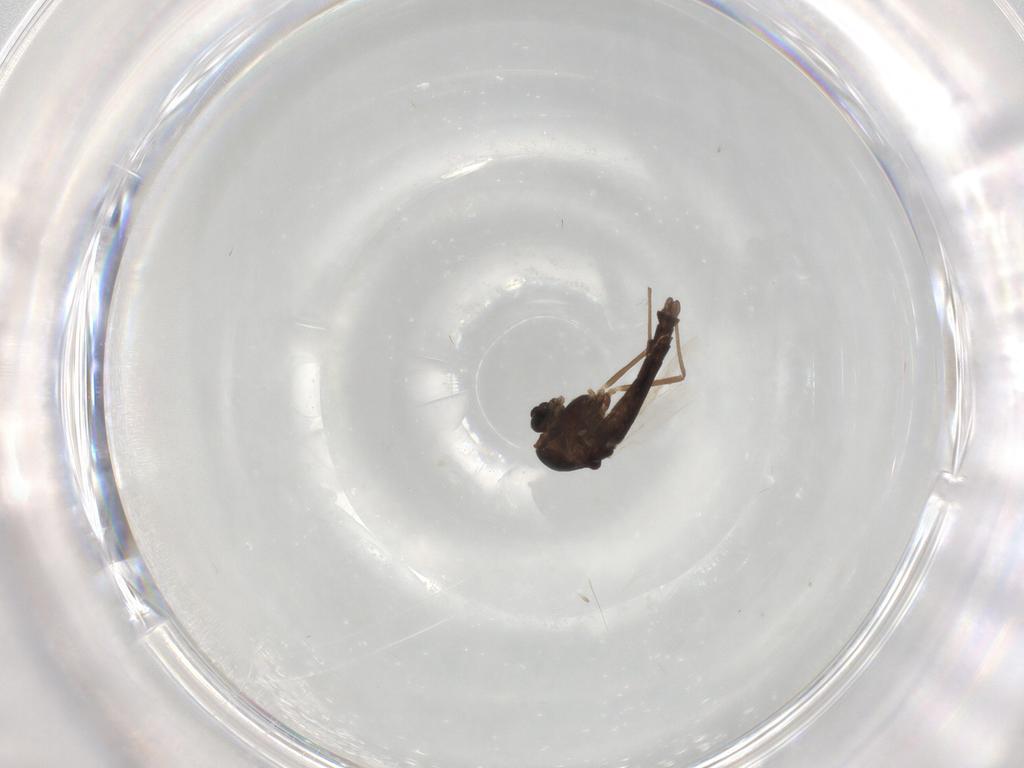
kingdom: Animalia
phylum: Arthropoda
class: Insecta
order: Diptera
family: Chironomidae
